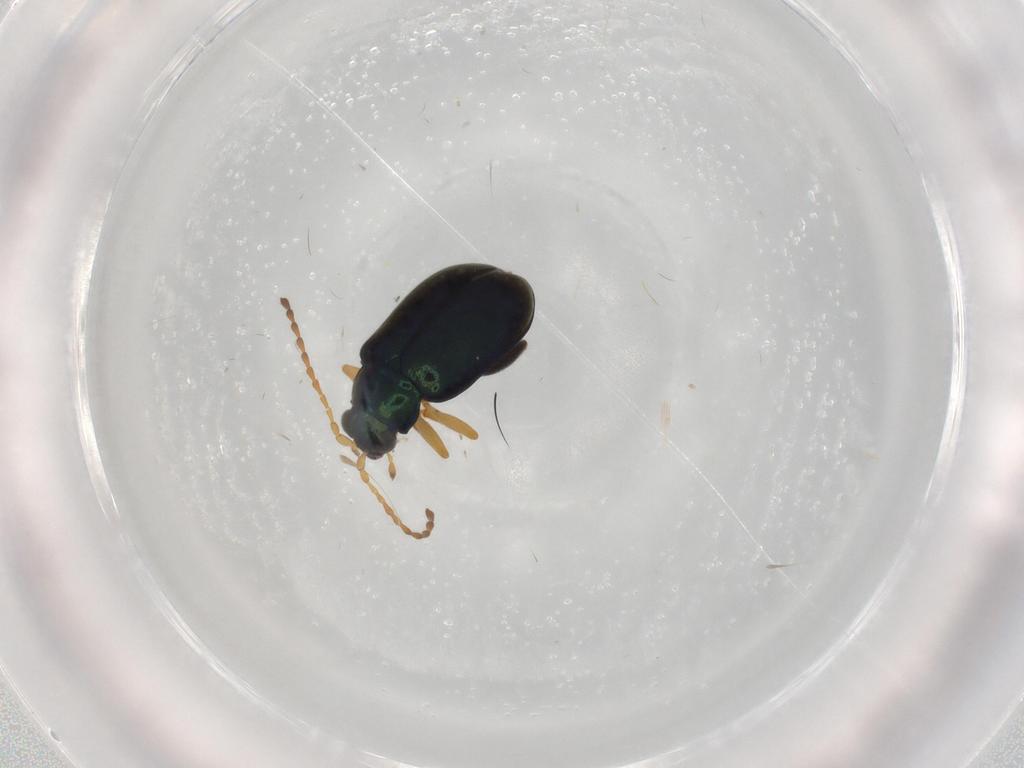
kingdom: Animalia
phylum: Arthropoda
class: Insecta
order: Coleoptera
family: Chrysomelidae
